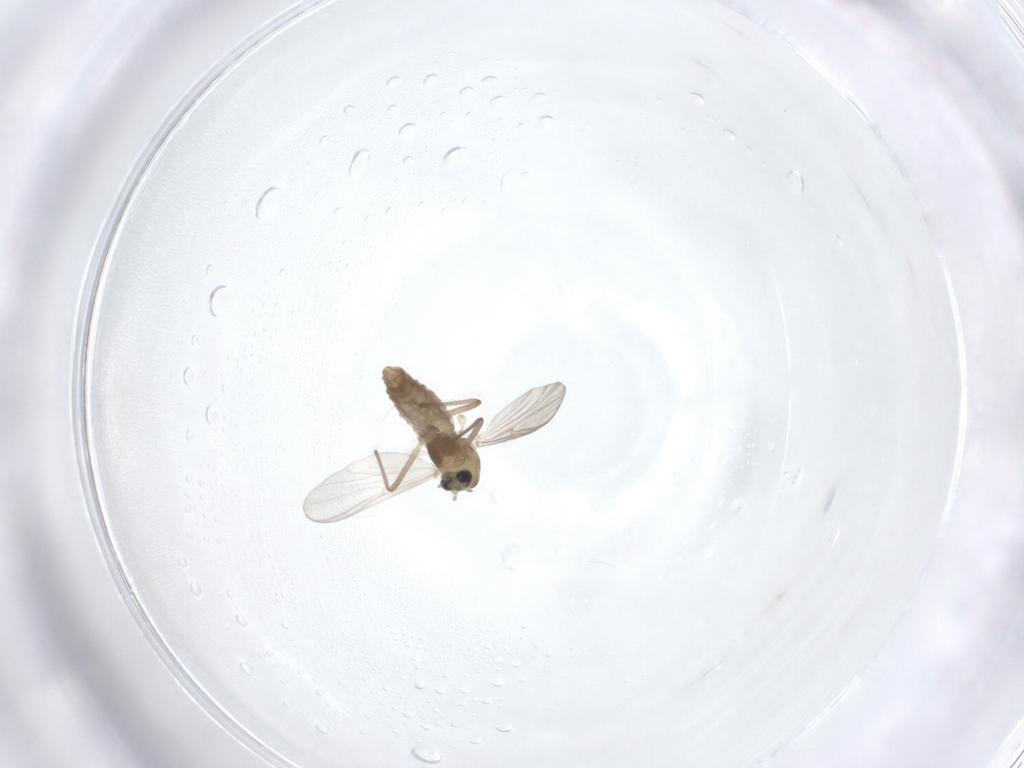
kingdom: Animalia
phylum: Arthropoda
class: Insecta
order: Diptera
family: Chironomidae
